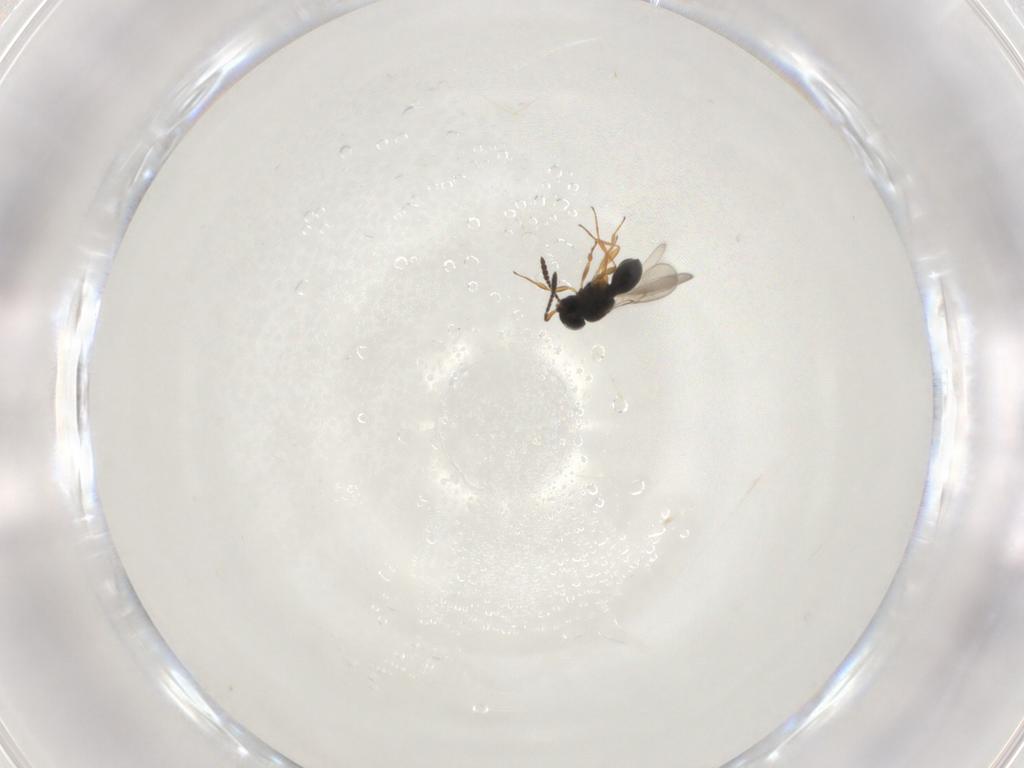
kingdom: Animalia
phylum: Arthropoda
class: Insecta
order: Hymenoptera
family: Scelionidae
